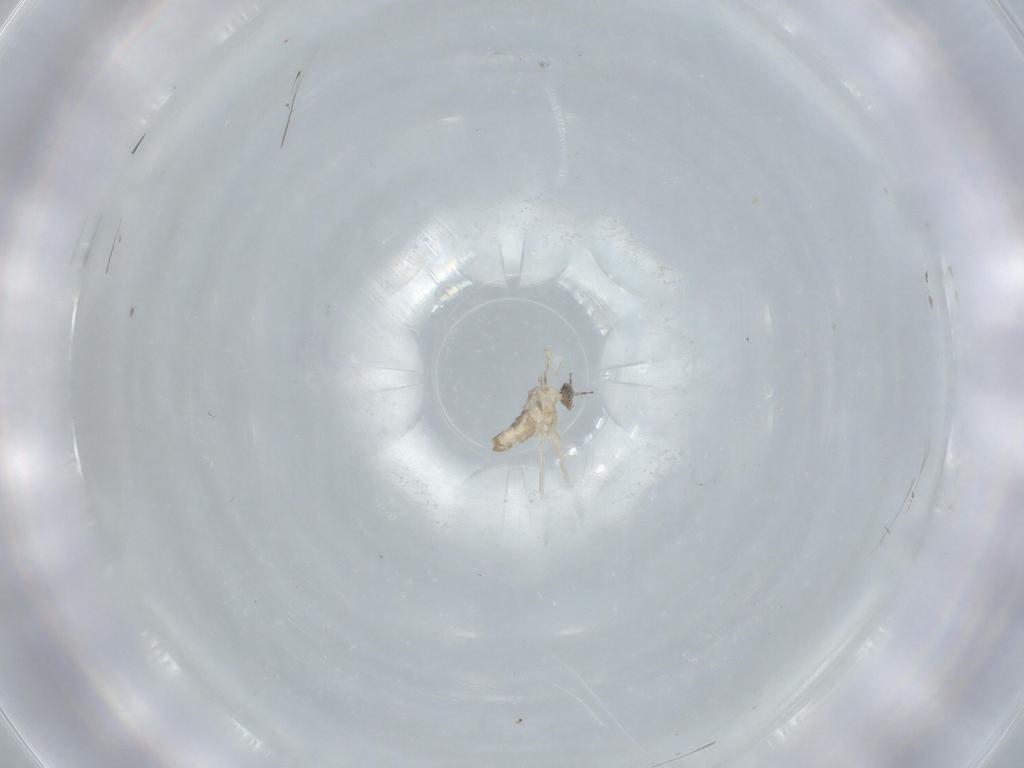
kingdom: Animalia
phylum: Arthropoda
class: Insecta
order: Diptera
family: Cecidomyiidae
